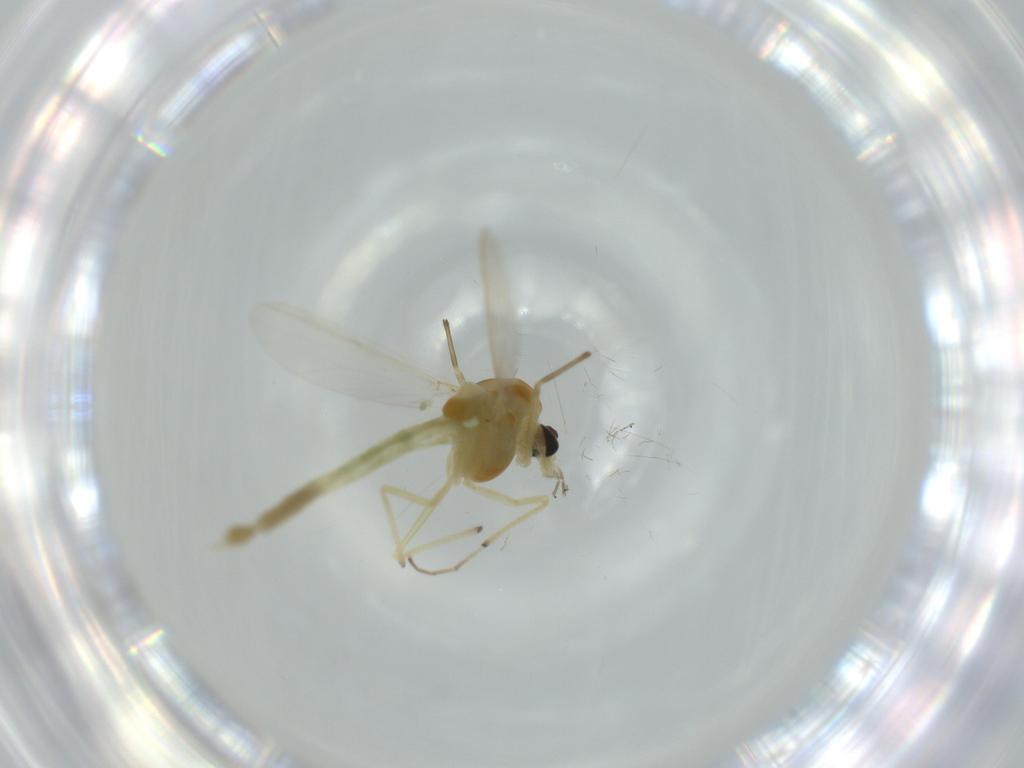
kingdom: Animalia
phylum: Arthropoda
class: Insecta
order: Diptera
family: Chironomidae
